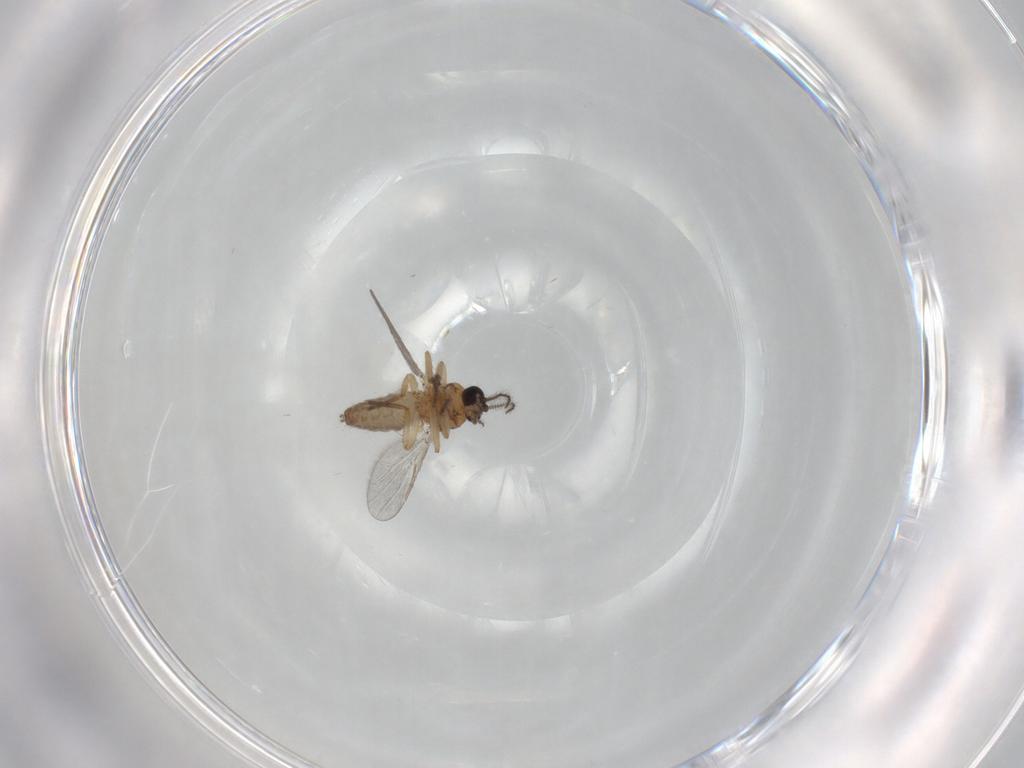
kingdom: Animalia
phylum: Arthropoda
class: Insecta
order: Diptera
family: Ceratopogonidae
